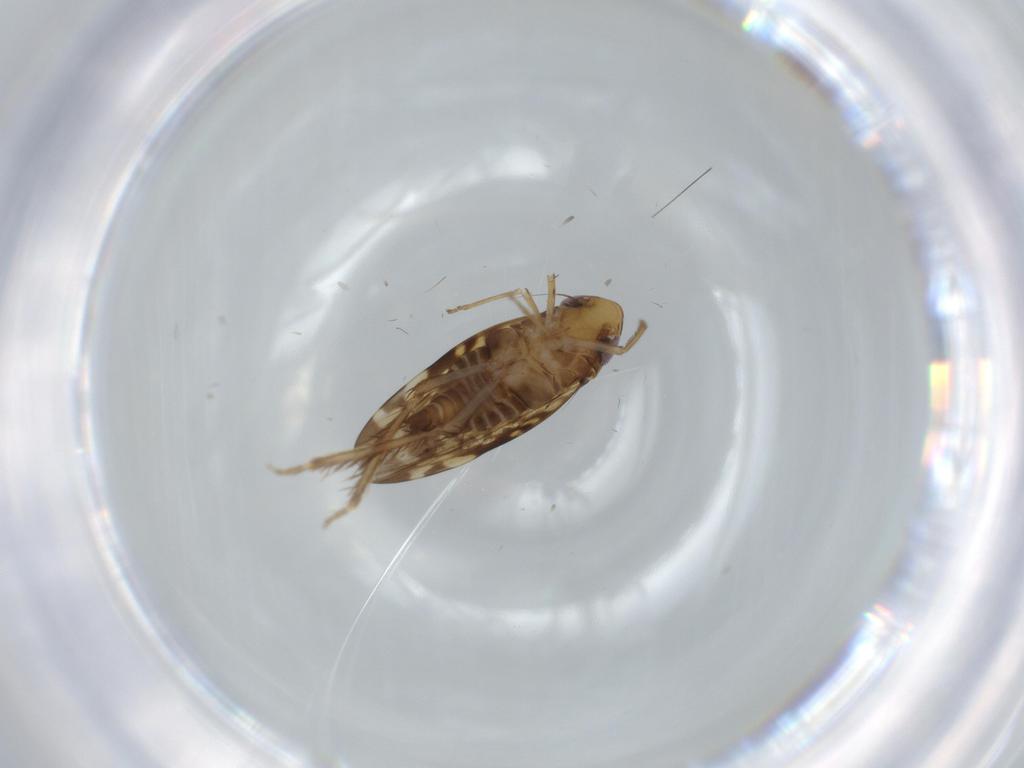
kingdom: Animalia
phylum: Arthropoda
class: Insecta
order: Hemiptera
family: Cicadellidae
